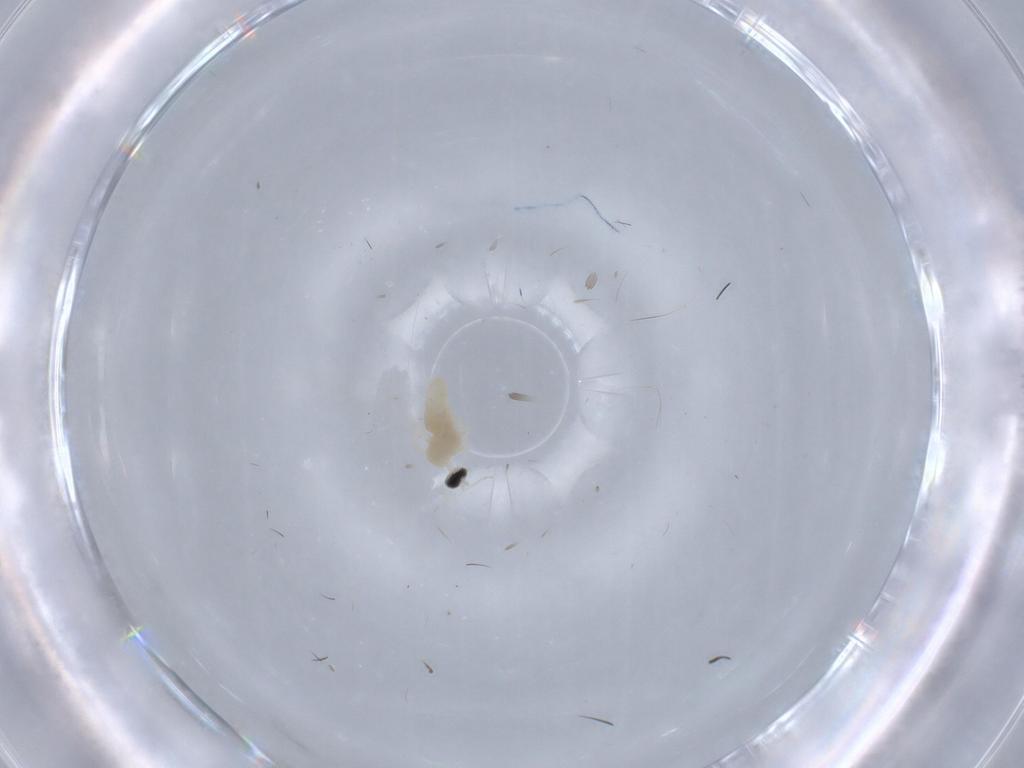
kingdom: Animalia
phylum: Arthropoda
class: Insecta
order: Diptera
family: Cecidomyiidae
